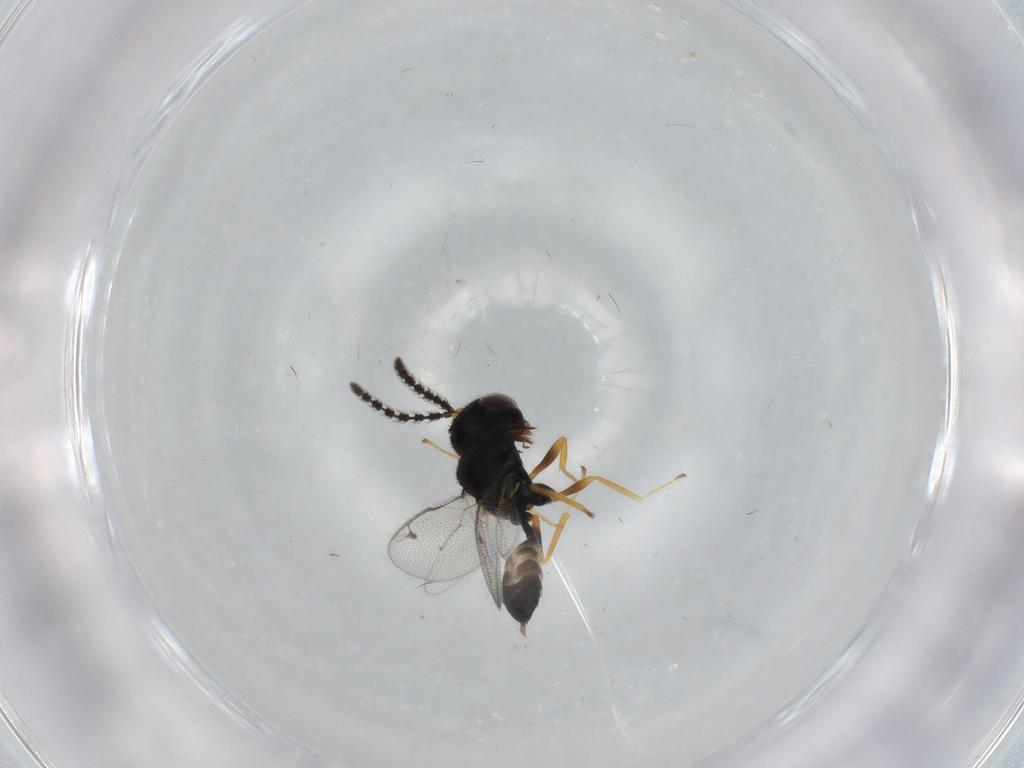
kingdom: Animalia
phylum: Arthropoda
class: Insecta
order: Hymenoptera
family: Agaonidae
